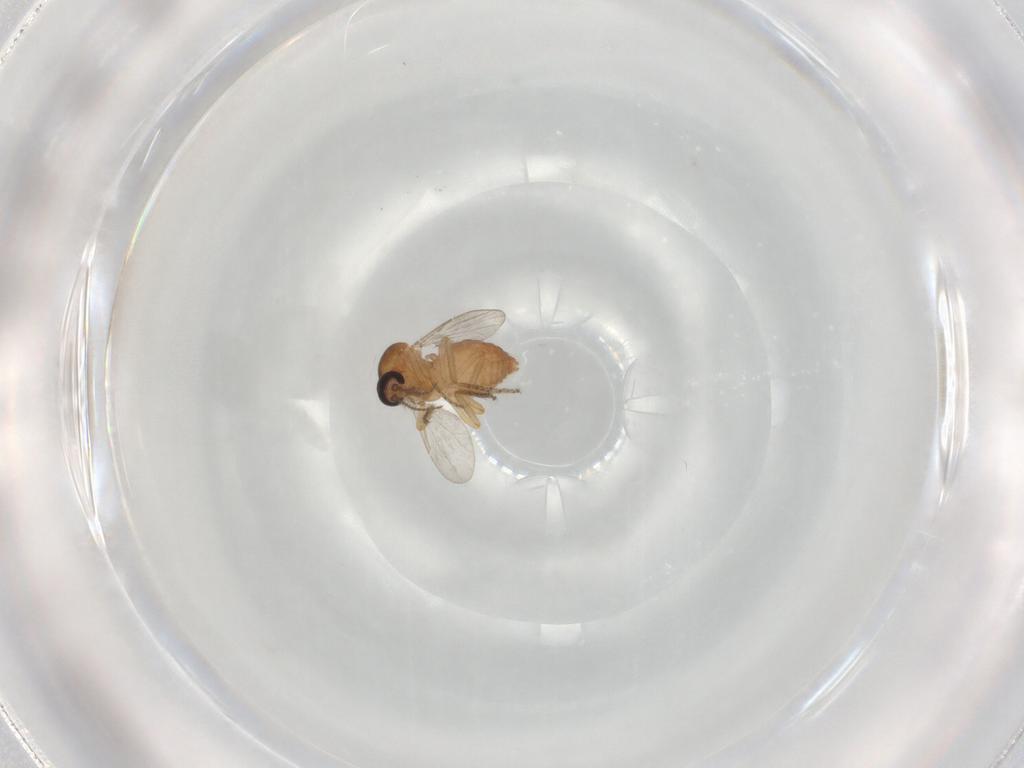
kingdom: Animalia
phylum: Arthropoda
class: Insecta
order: Diptera
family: Ceratopogonidae
